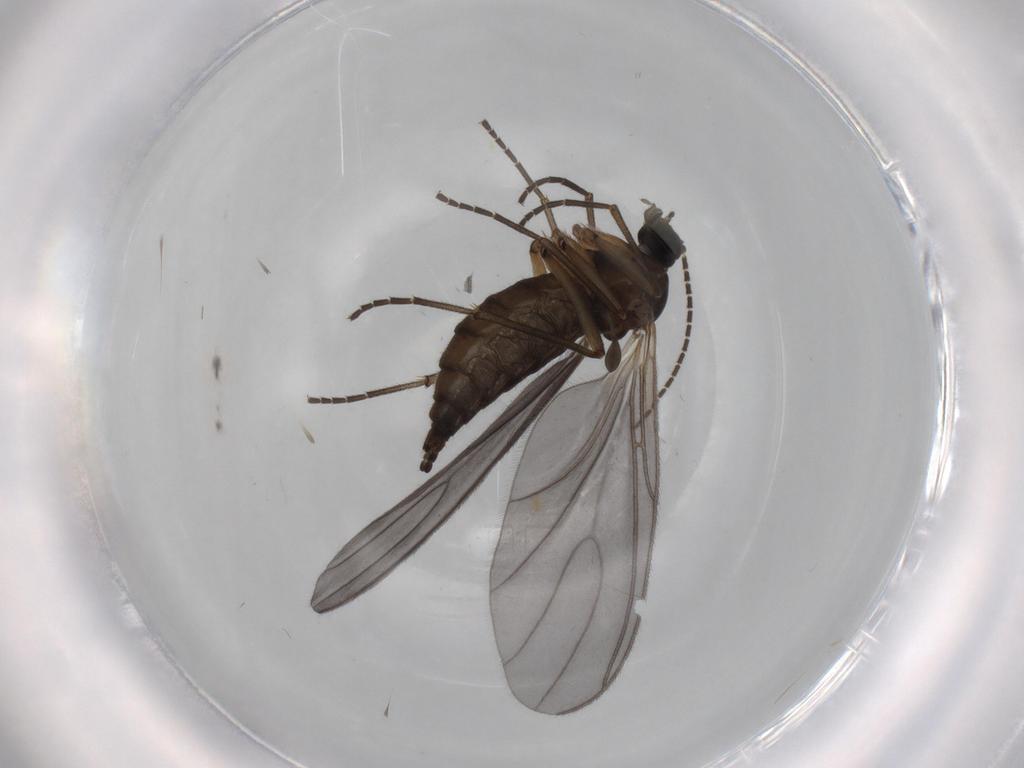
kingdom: Animalia
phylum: Arthropoda
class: Insecta
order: Diptera
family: Sciaridae
